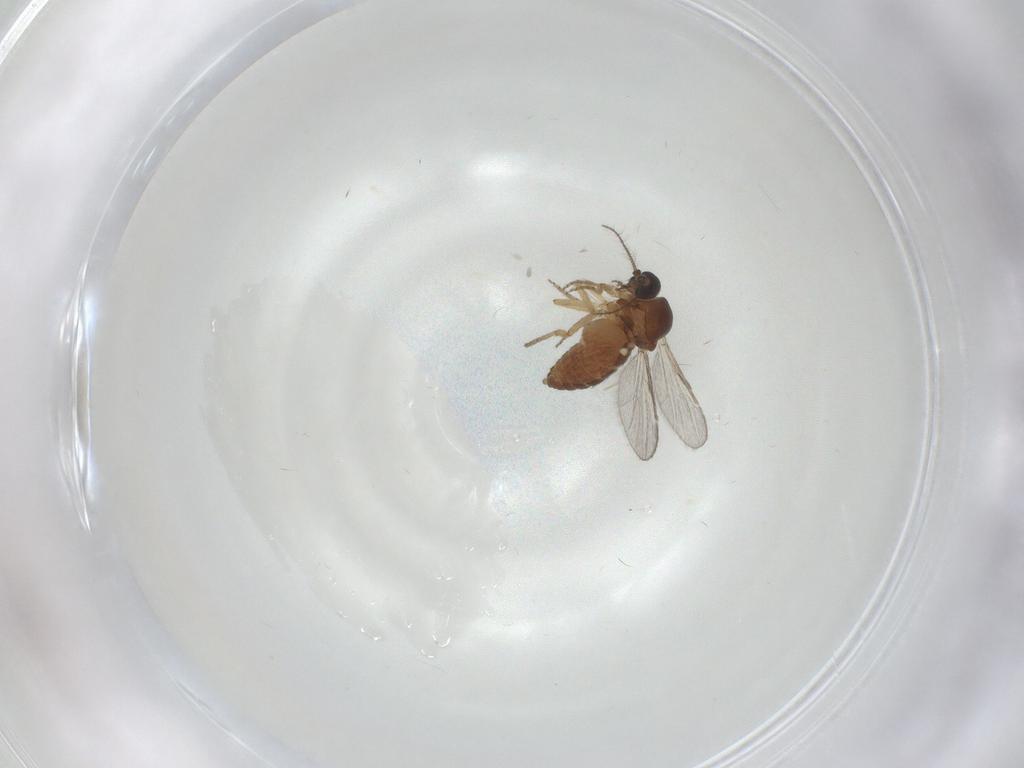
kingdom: Animalia
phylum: Arthropoda
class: Insecta
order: Diptera
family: Ceratopogonidae
